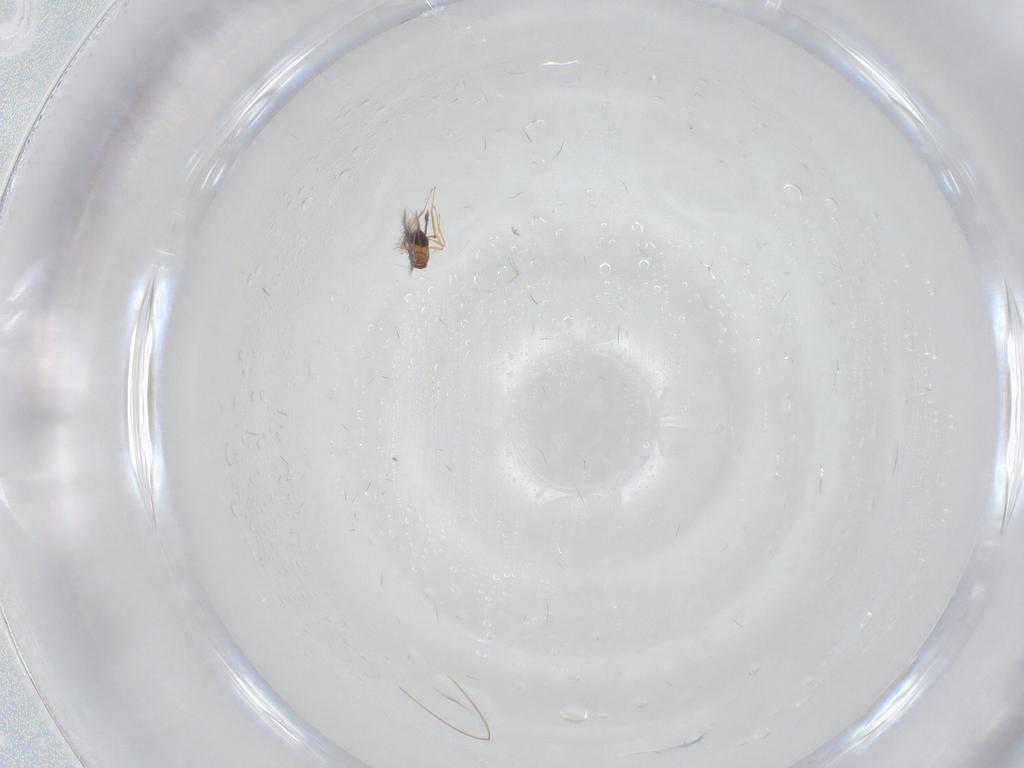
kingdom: Animalia
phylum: Arthropoda
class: Insecta
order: Hymenoptera
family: Mymaridae
